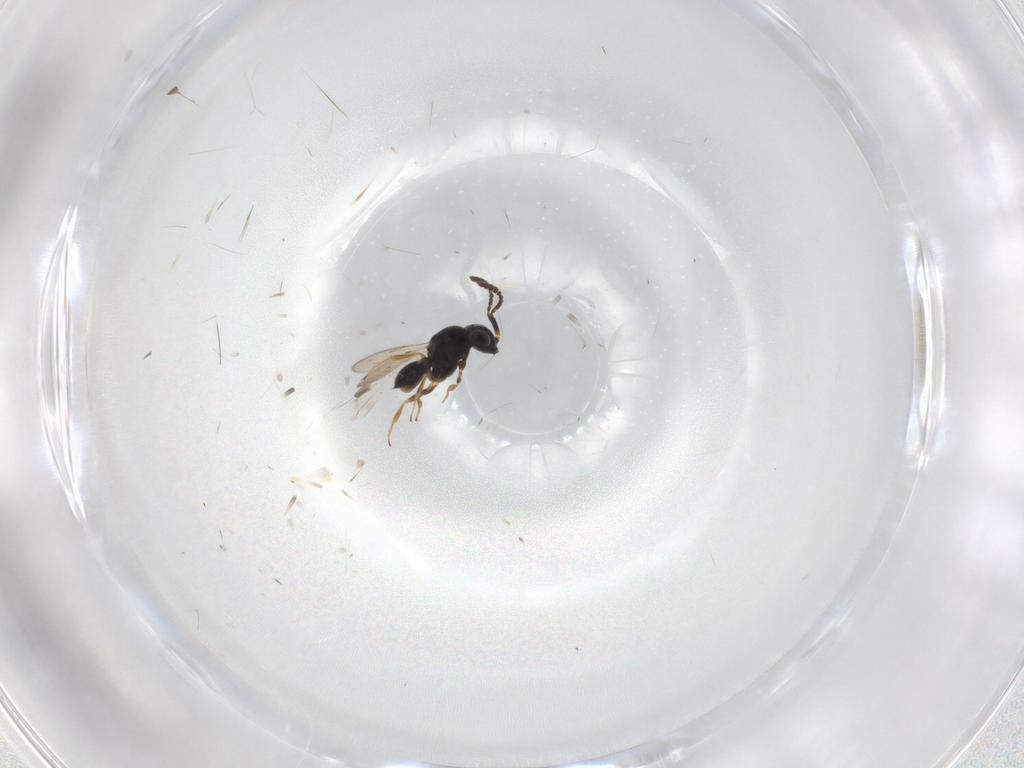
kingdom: Animalia
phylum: Arthropoda
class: Insecta
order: Hymenoptera
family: Scelionidae
